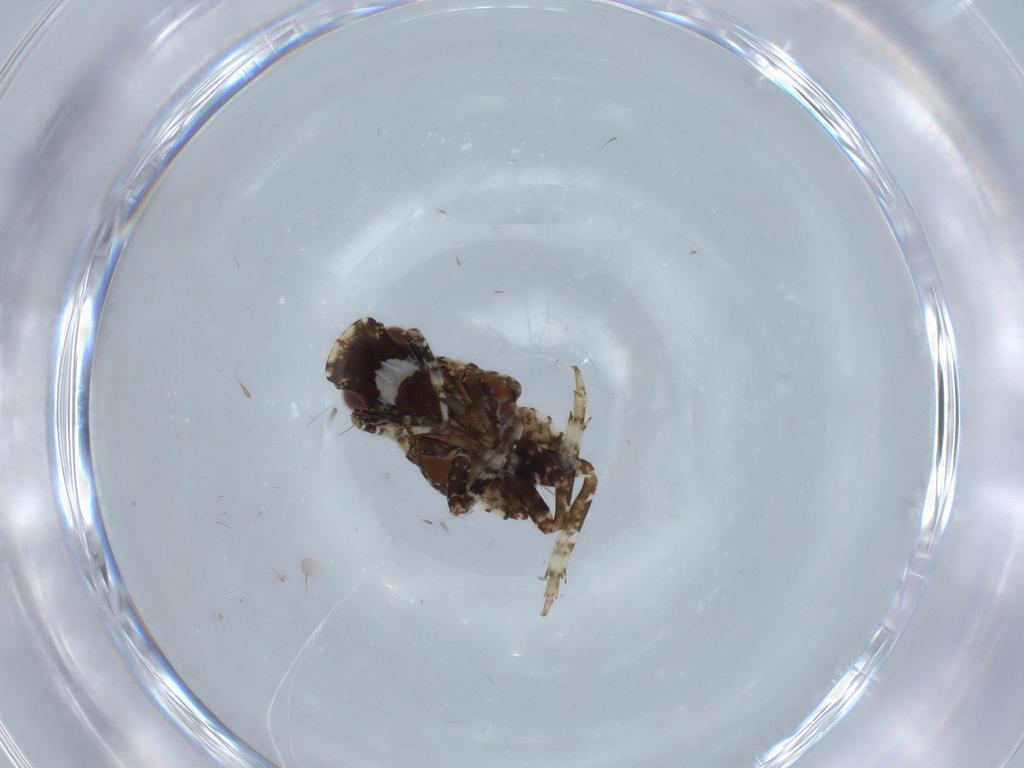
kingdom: Animalia
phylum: Arthropoda
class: Insecta
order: Hemiptera
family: Fulgoridae
